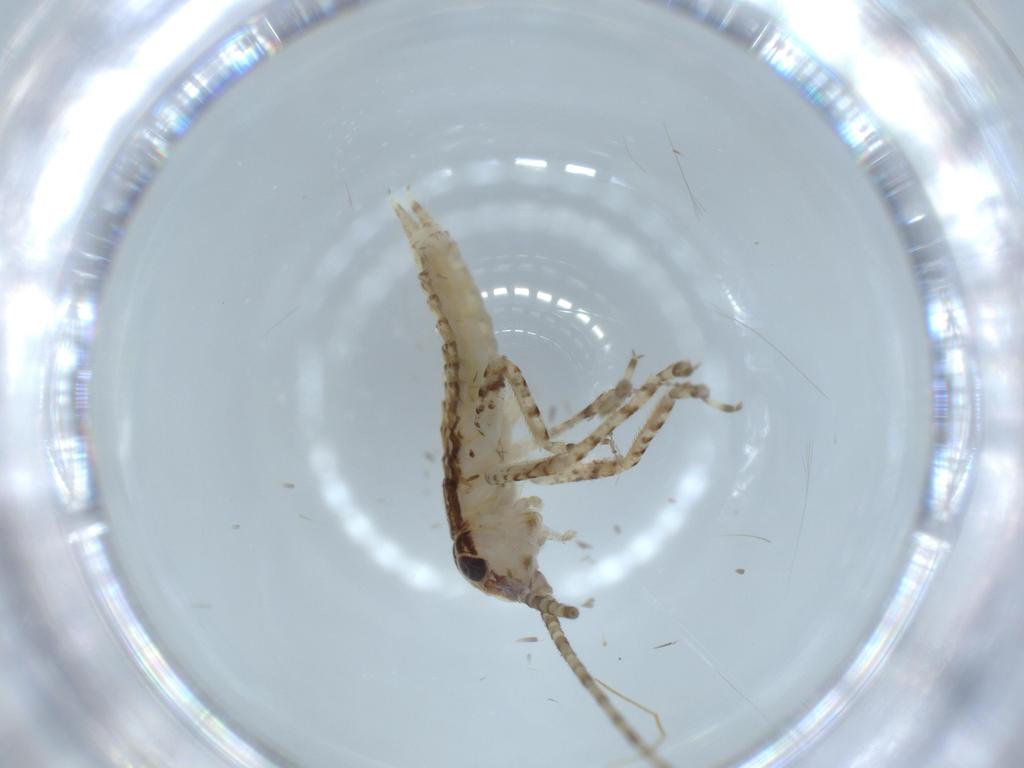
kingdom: Animalia
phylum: Arthropoda
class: Insecta
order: Orthoptera
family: Gryllidae
